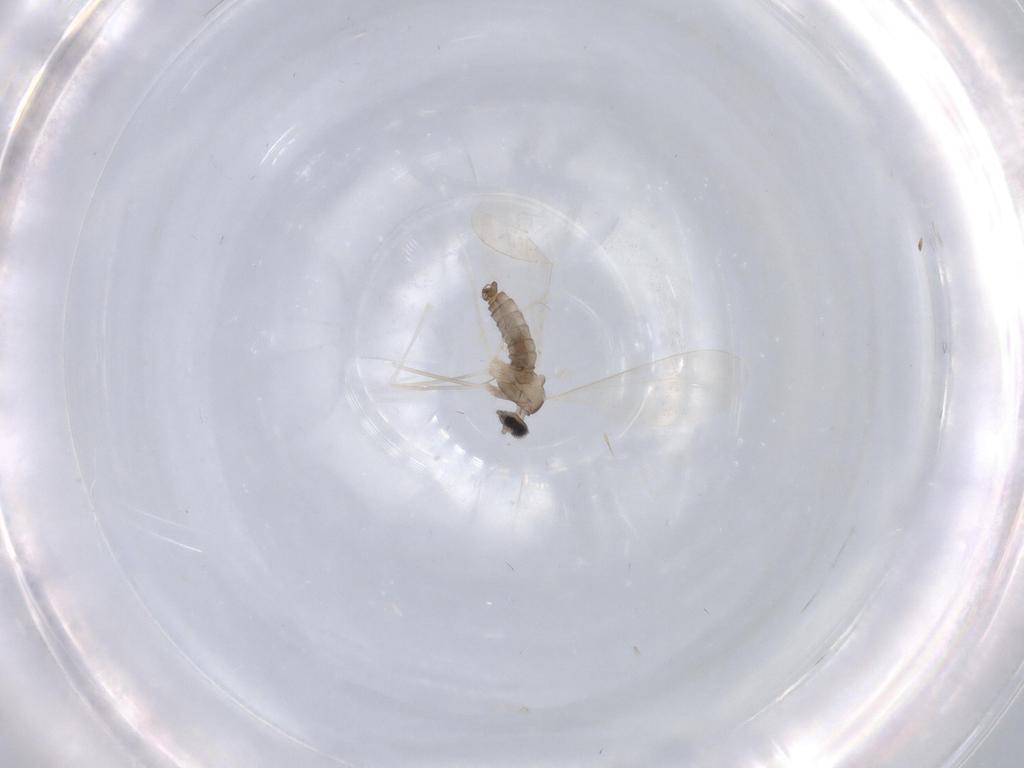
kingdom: Animalia
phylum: Arthropoda
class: Insecta
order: Diptera
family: Cecidomyiidae
